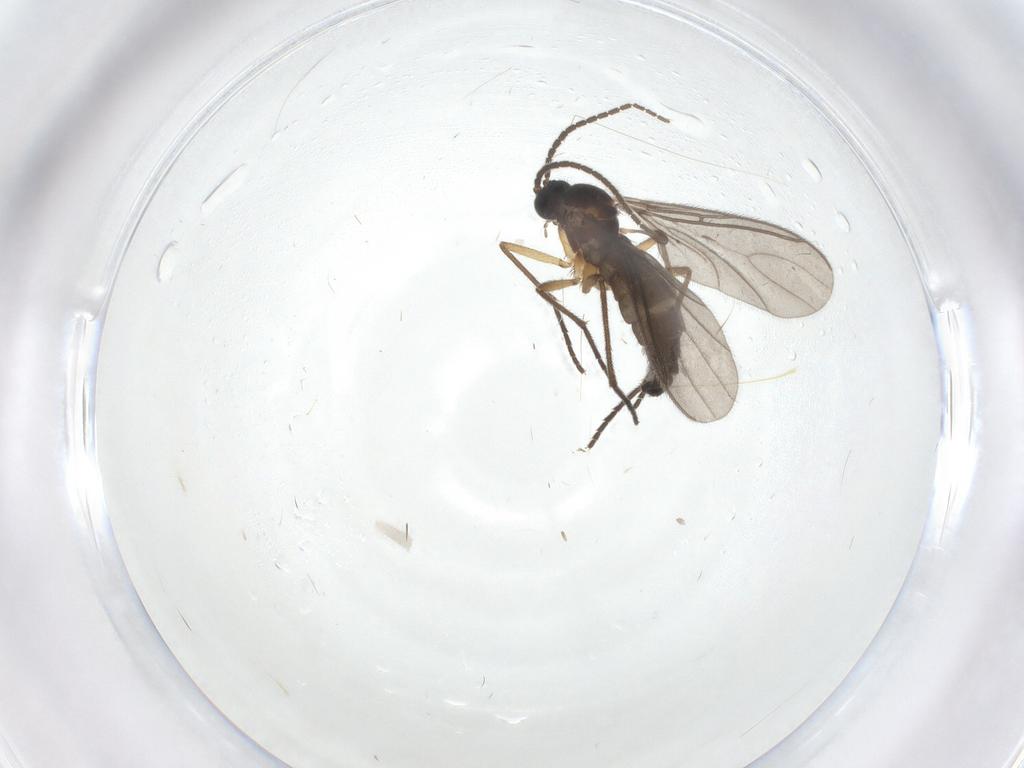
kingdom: Animalia
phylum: Arthropoda
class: Insecta
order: Diptera
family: Sciaridae
